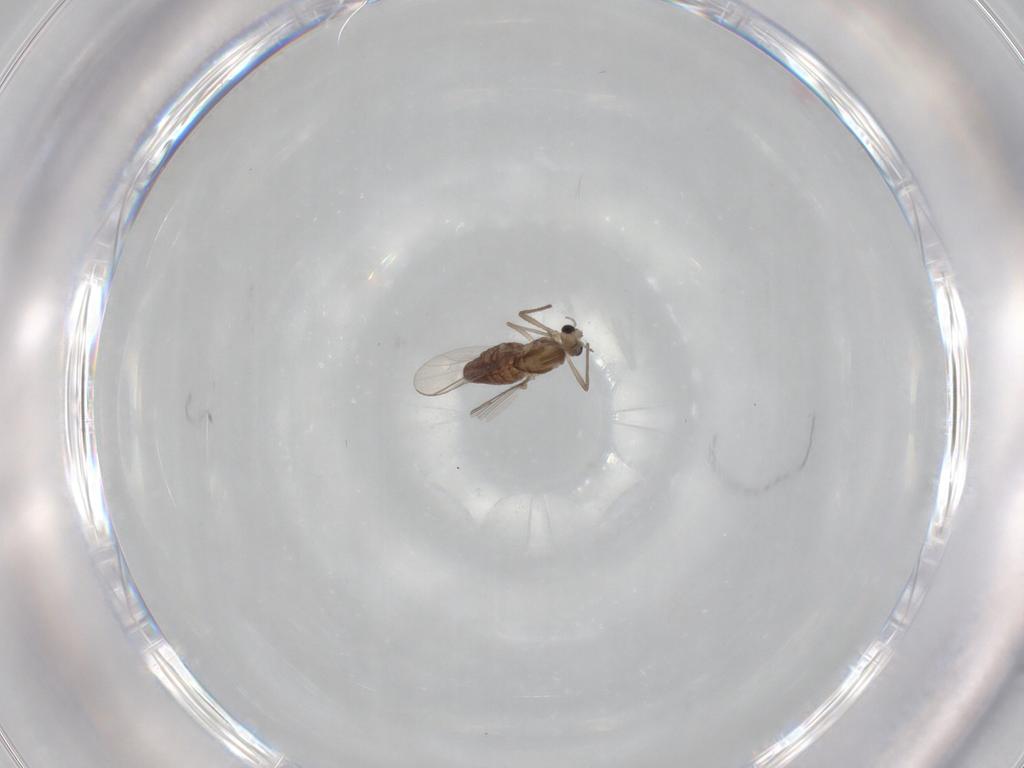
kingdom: Animalia
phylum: Arthropoda
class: Insecta
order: Diptera
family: Chironomidae
